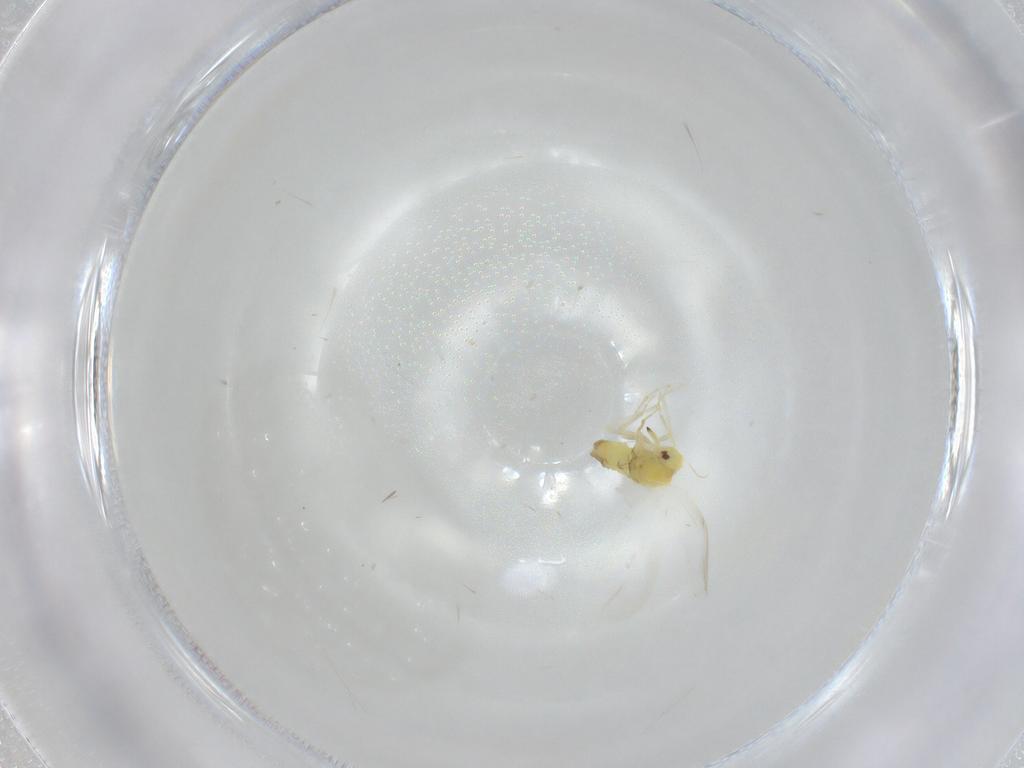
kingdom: Animalia
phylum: Arthropoda
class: Insecta
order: Hemiptera
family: Aleyrodidae
